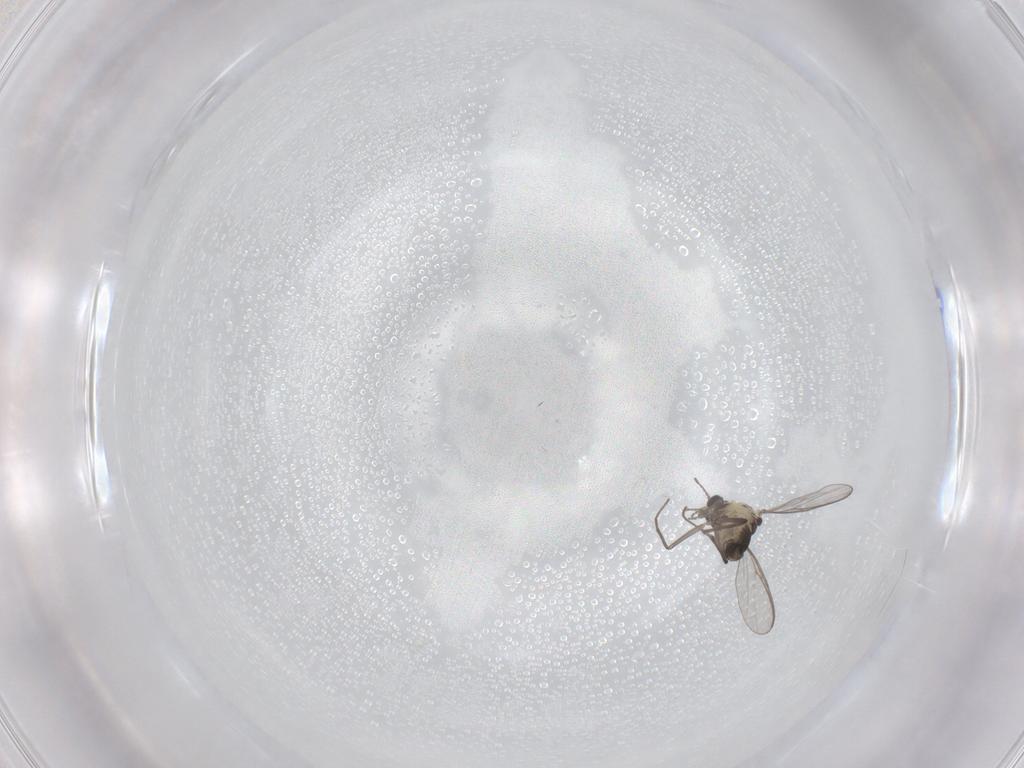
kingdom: Animalia
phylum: Arthropoda
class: Insecta
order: Diptera
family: Chironomidae
